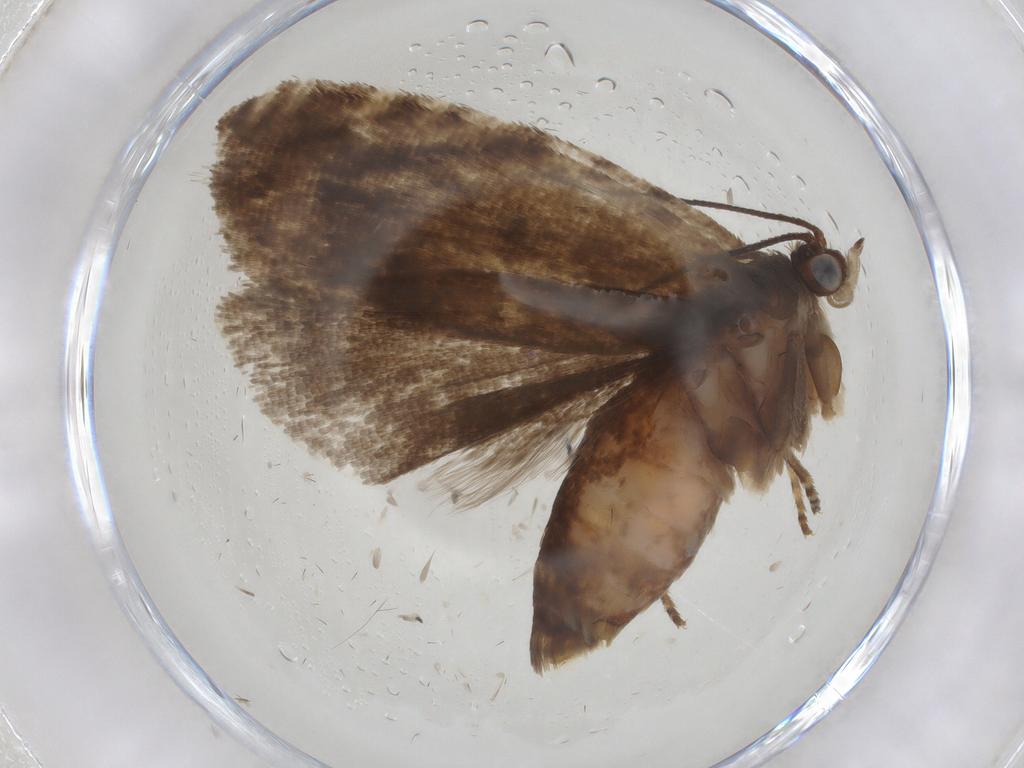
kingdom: Animalia
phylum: Arthropoda
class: Insecta
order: Lepidoptera
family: Tortricidae
